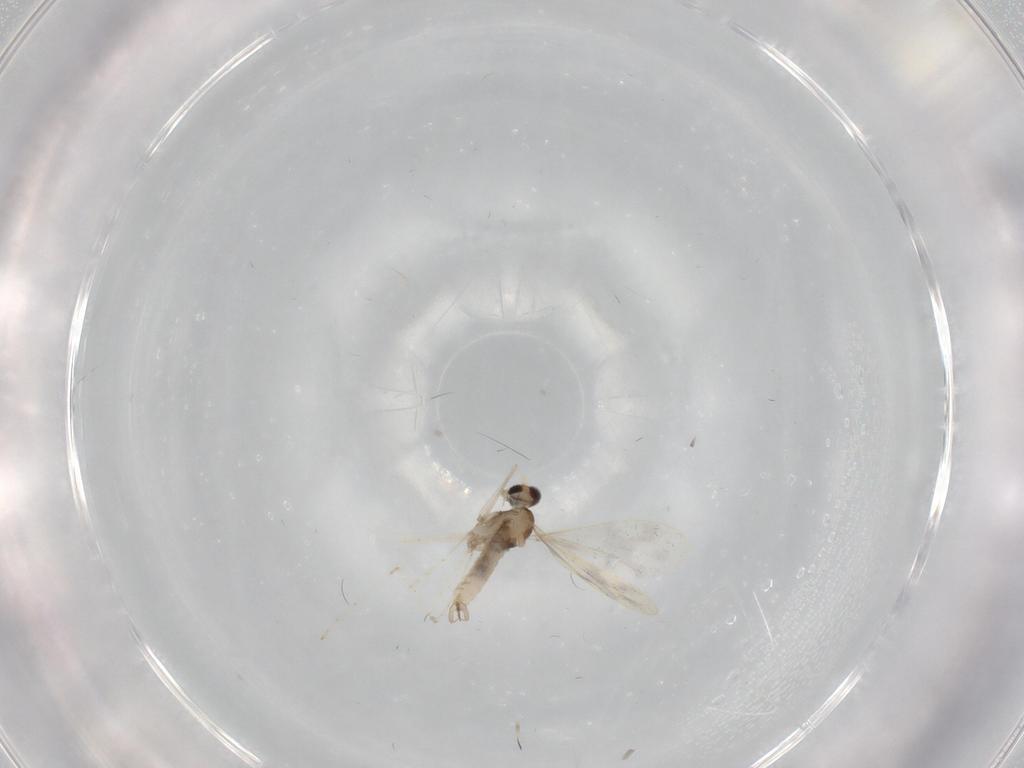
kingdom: Animalia
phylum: Arthropoda
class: Insecta
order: Diptera
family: Cecidomyiidae
